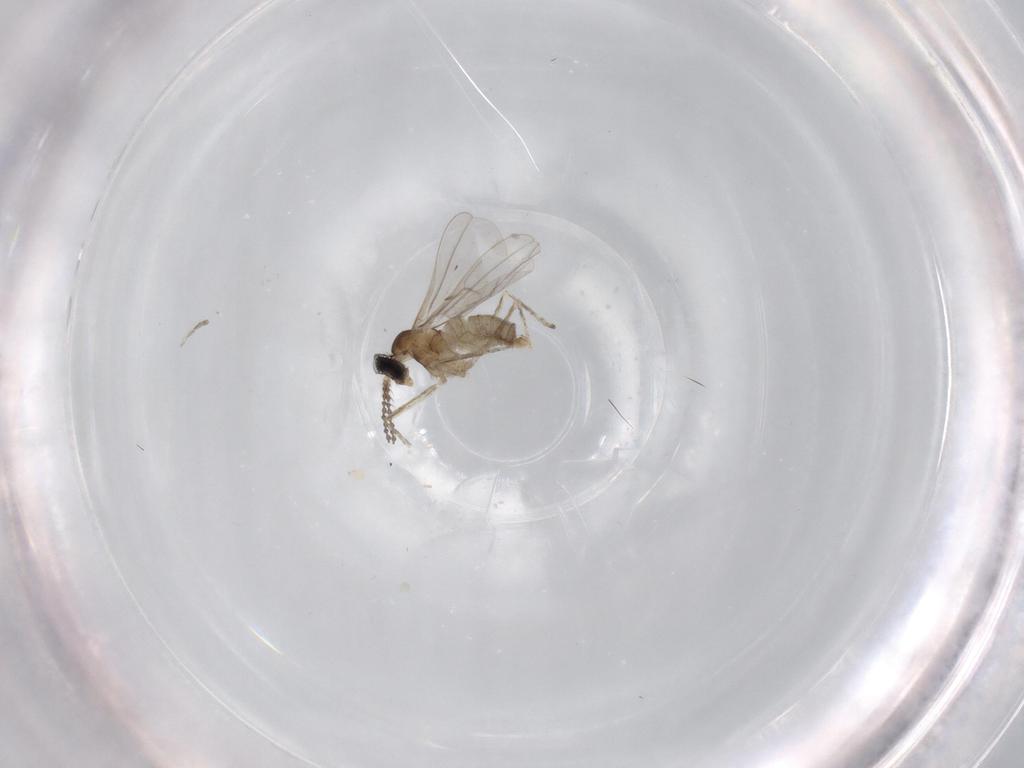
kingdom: Animalia
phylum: Arthropoda
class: Insecta
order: Diptera
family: Cecidomyiidae
